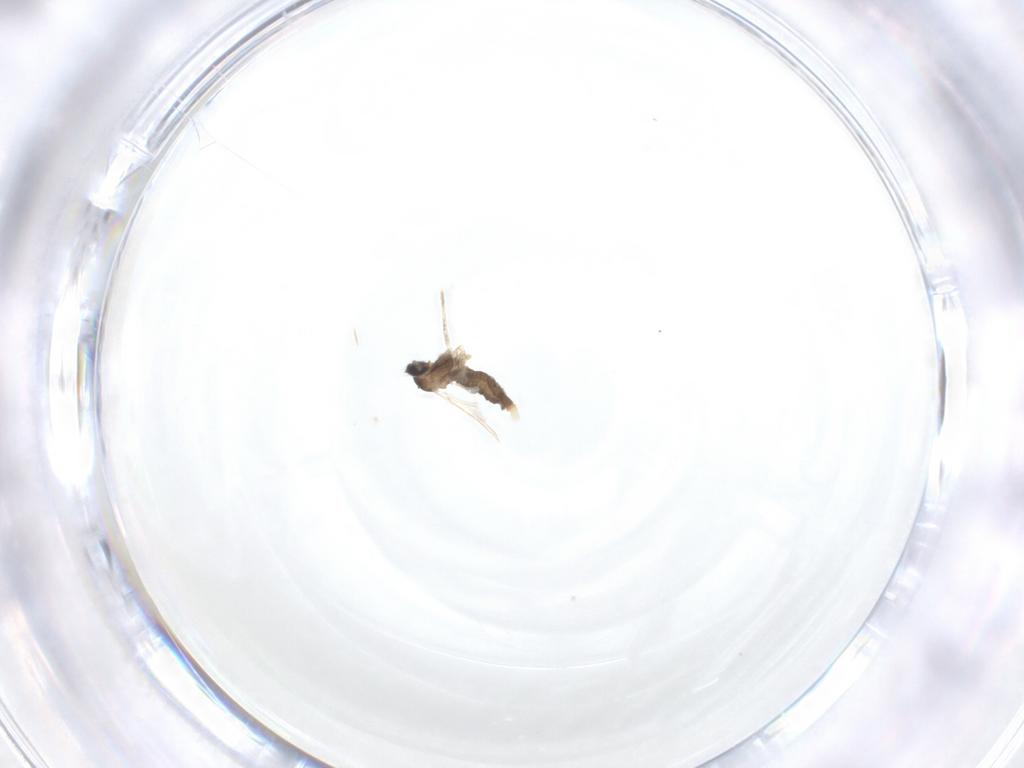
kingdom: Animalia
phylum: Arthropoda
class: Insecta
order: Diptera
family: Cecidomyiidae
